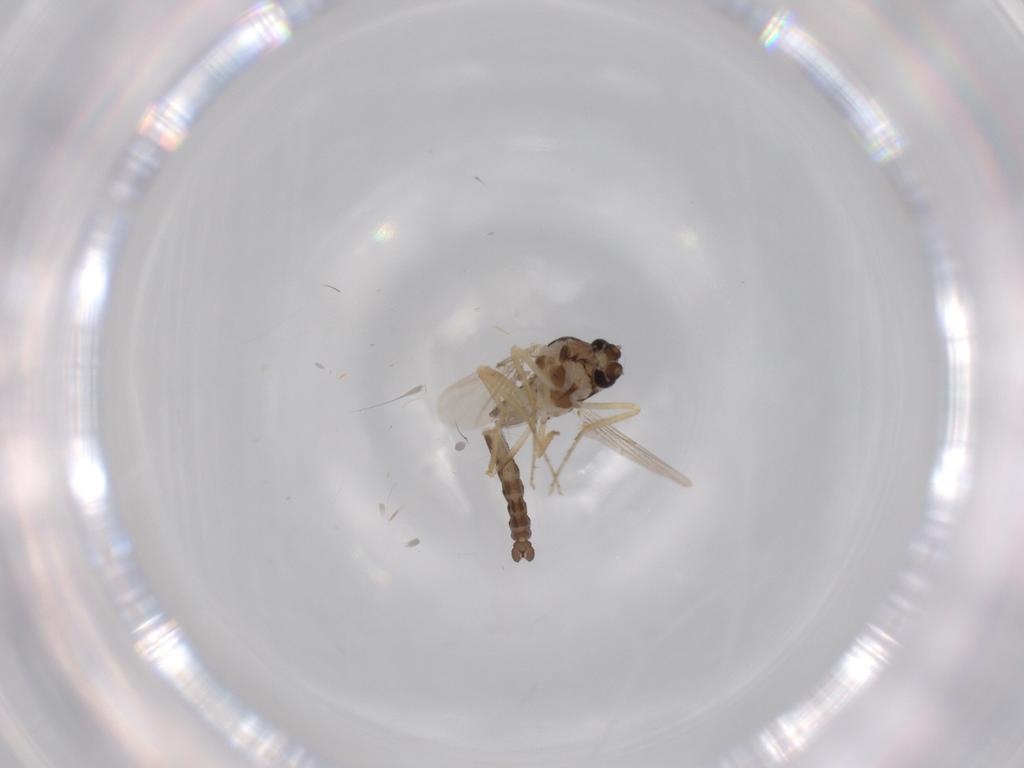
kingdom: Animalia
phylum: Arthropoda
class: Insecta
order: Diptera
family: Ceratopogonidae
